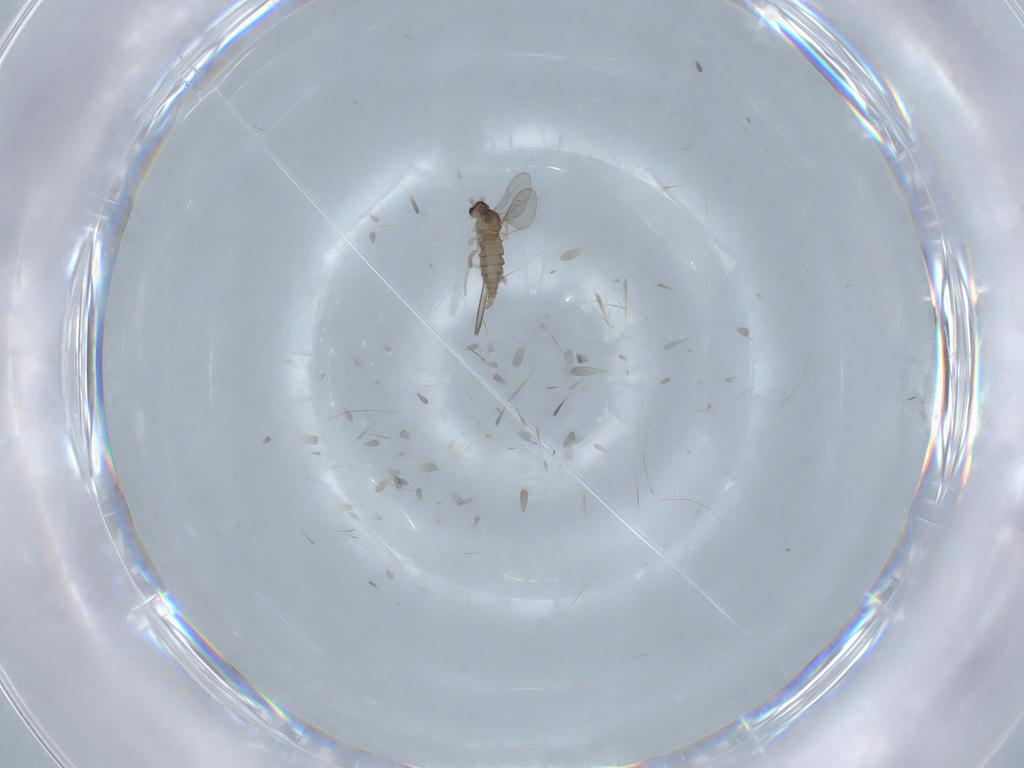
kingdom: Animalia
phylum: Arthropoda
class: Insecta
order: Diptera
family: Cecidomyiidae
